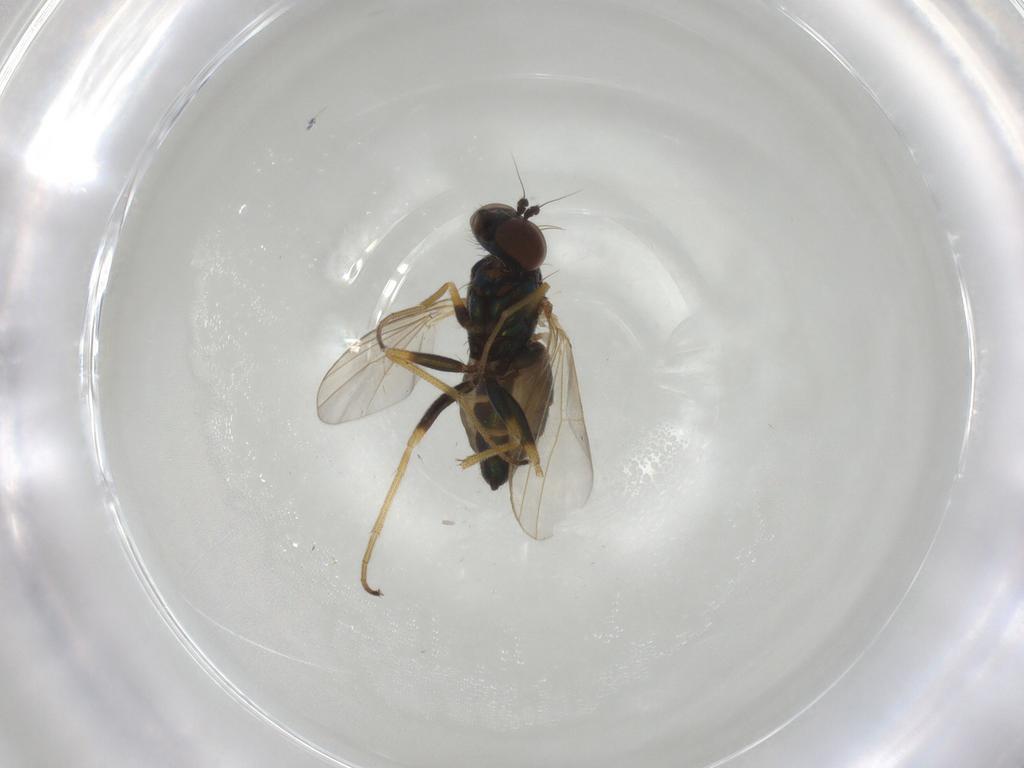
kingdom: Animalia
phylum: Arthropoda
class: Insecta
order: Diptera
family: Dolichopodidae
